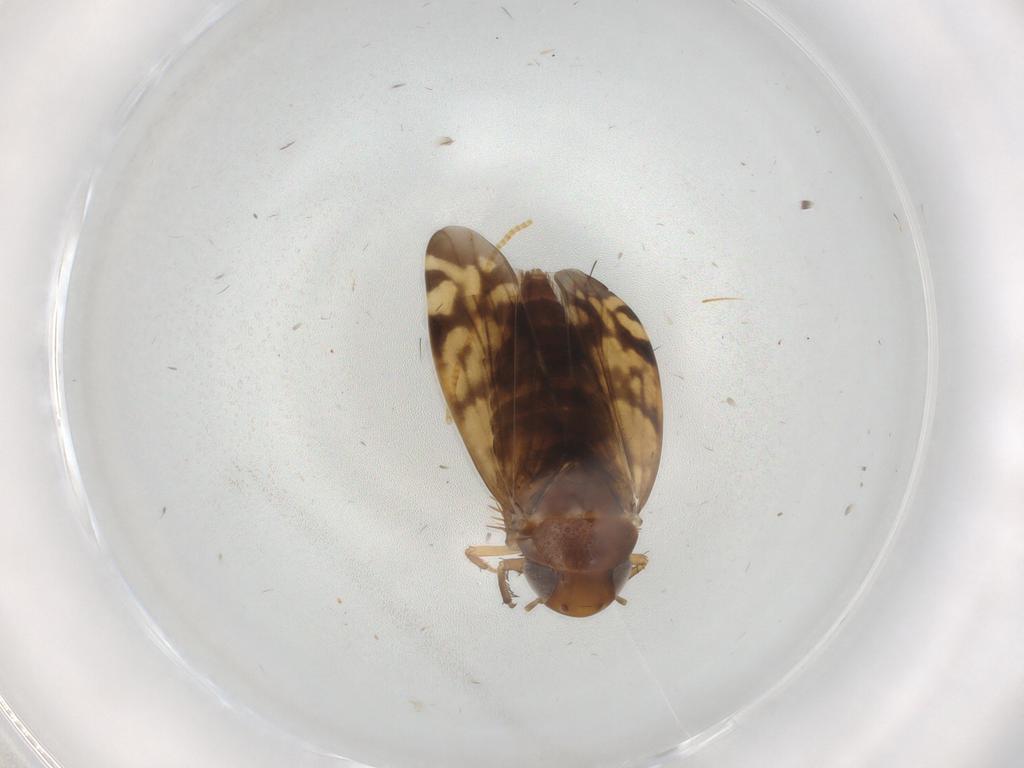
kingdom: Animalia
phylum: Arthropoda
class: Insecta
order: Hemiptera
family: Cicadellidae
